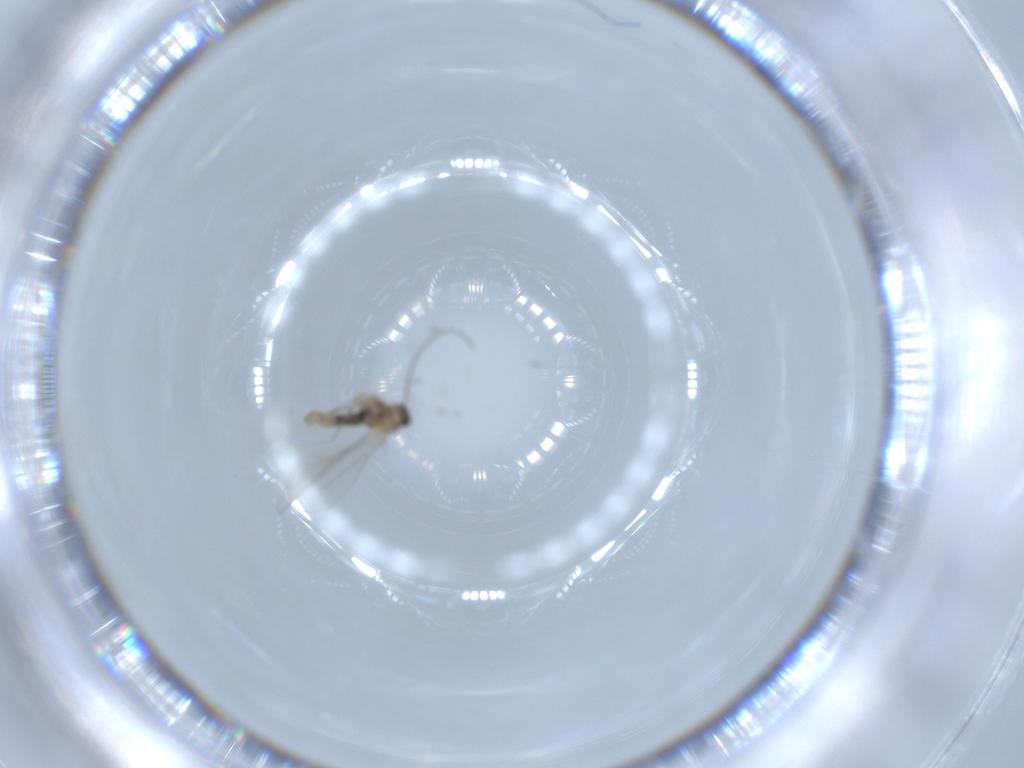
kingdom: Animalia
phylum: Arthropoda
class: Insecta
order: Diptera
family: Cecidomyiidae
